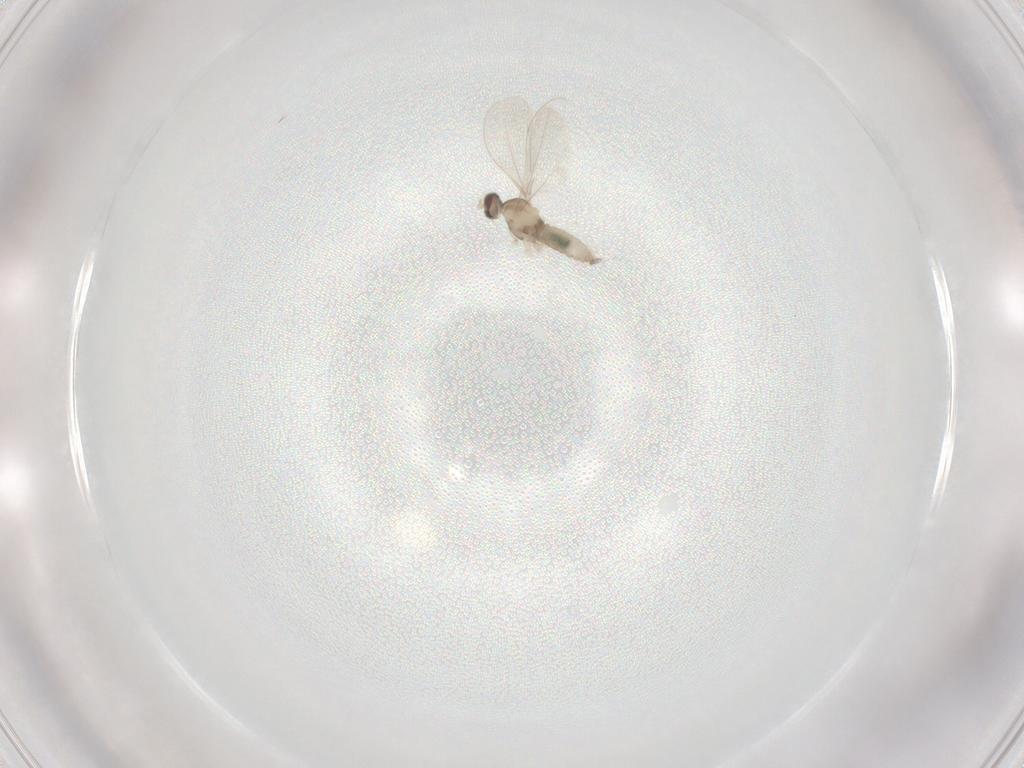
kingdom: Animalia
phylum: Arthropoda
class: Insecta
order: Diptera
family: Cecidomyiidae
